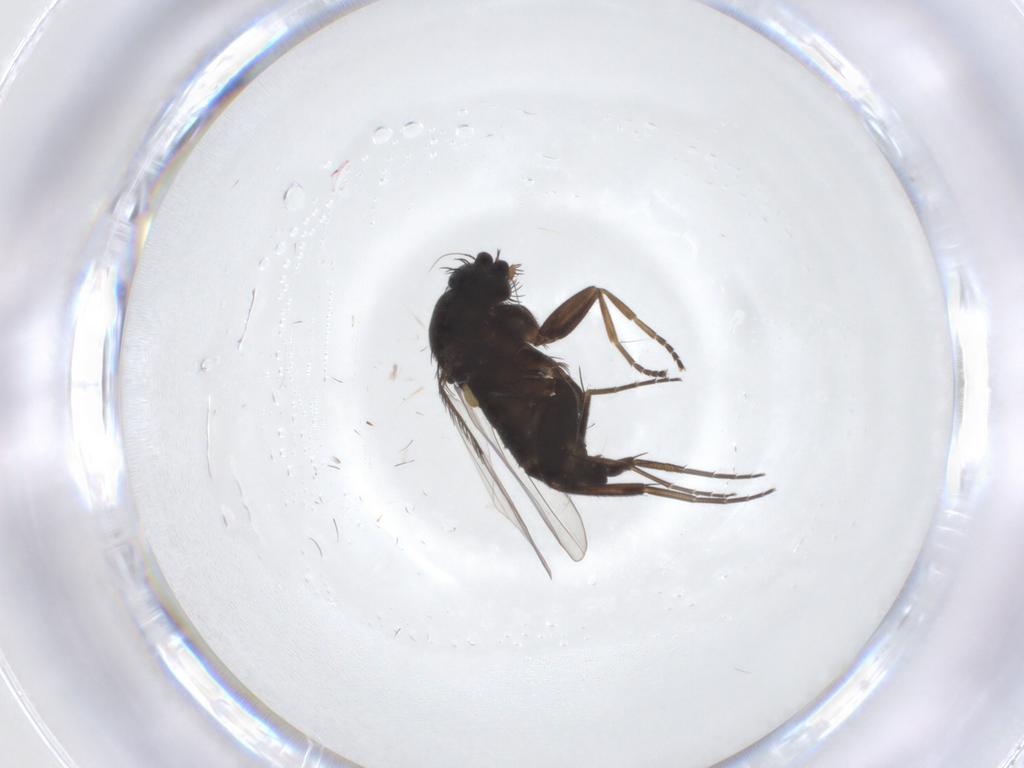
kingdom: Animalia
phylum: Arthropoda
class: Insecta
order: Diptera
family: Phoridae
